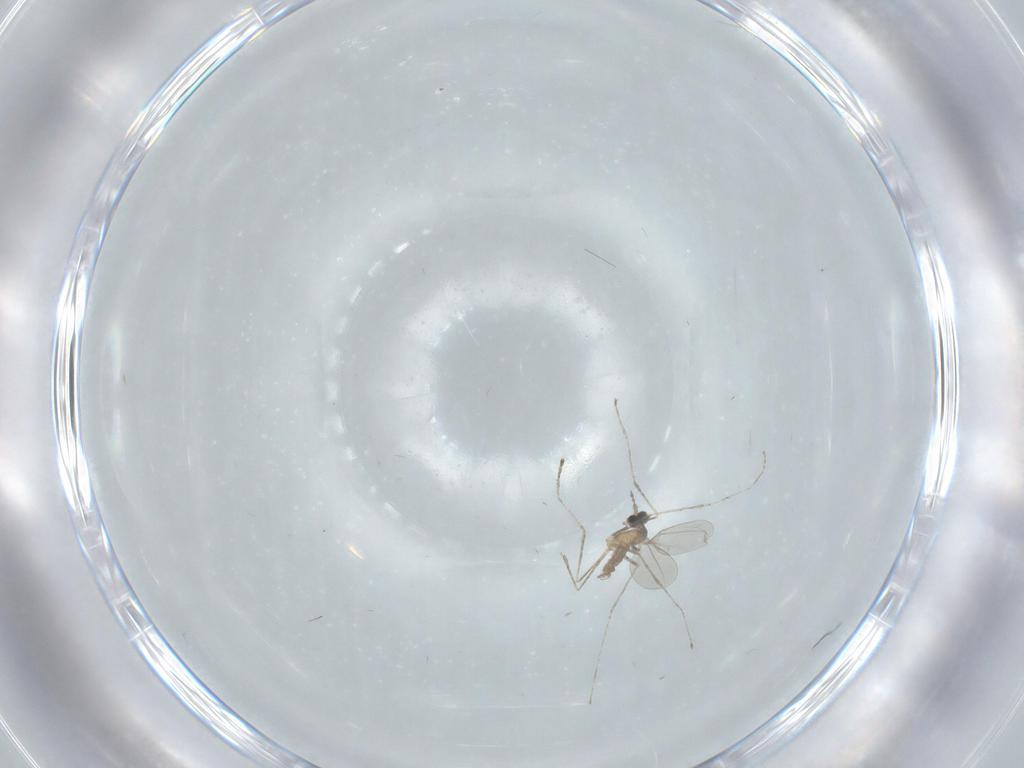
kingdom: Animalia
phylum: Arthropoda
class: Insecta
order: Diptera
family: Cecidomyiidae
